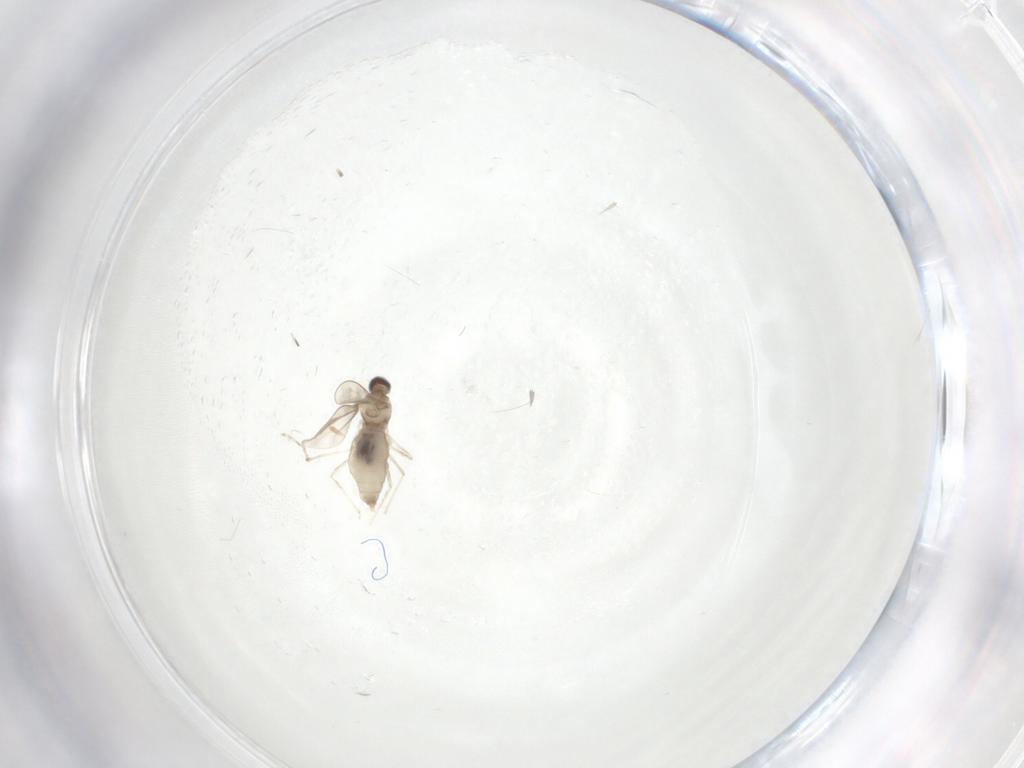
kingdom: Animalia
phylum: Arthropoda
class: Insecta
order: Diptera
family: Cecidomyiidae
